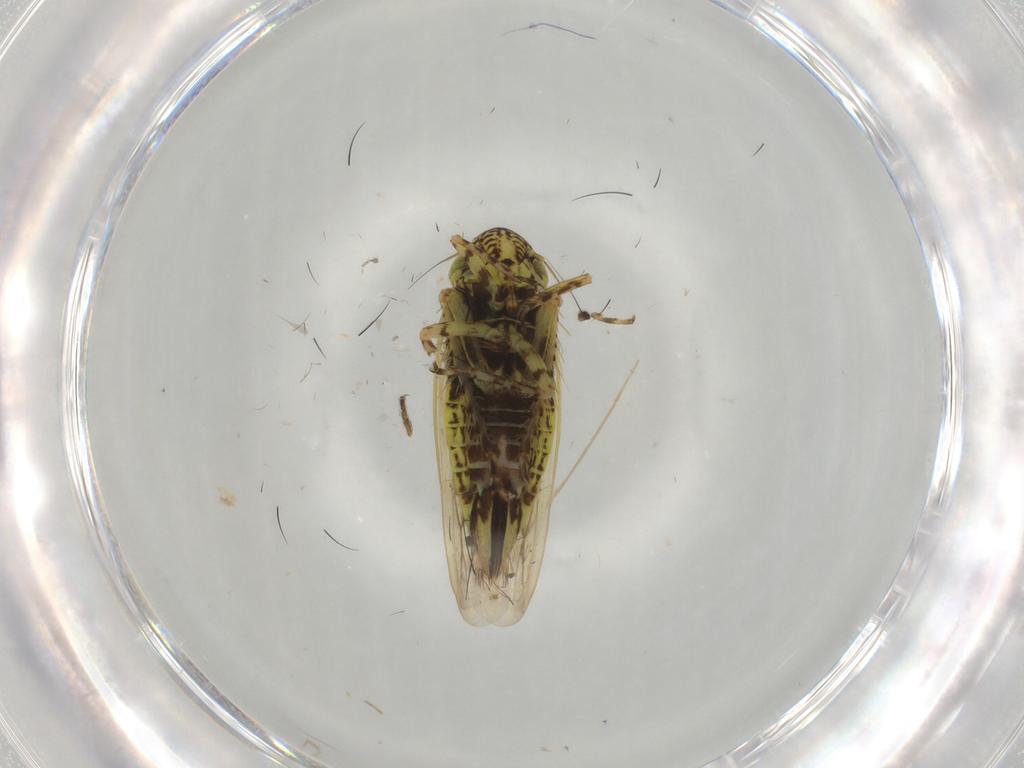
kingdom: Animalia
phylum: Arthropoda
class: Insecta
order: Hemiptera
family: Cicadellidae
